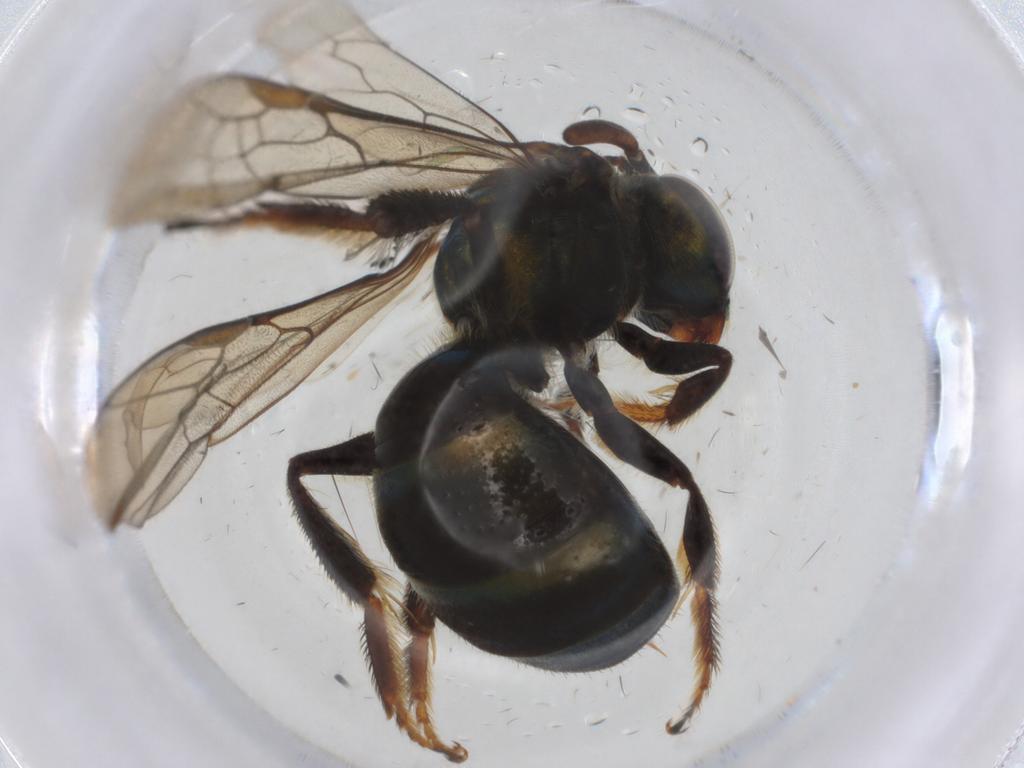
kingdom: Animalia
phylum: Arthropoda
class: Insecta
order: Hymenoptera
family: Halictidae
